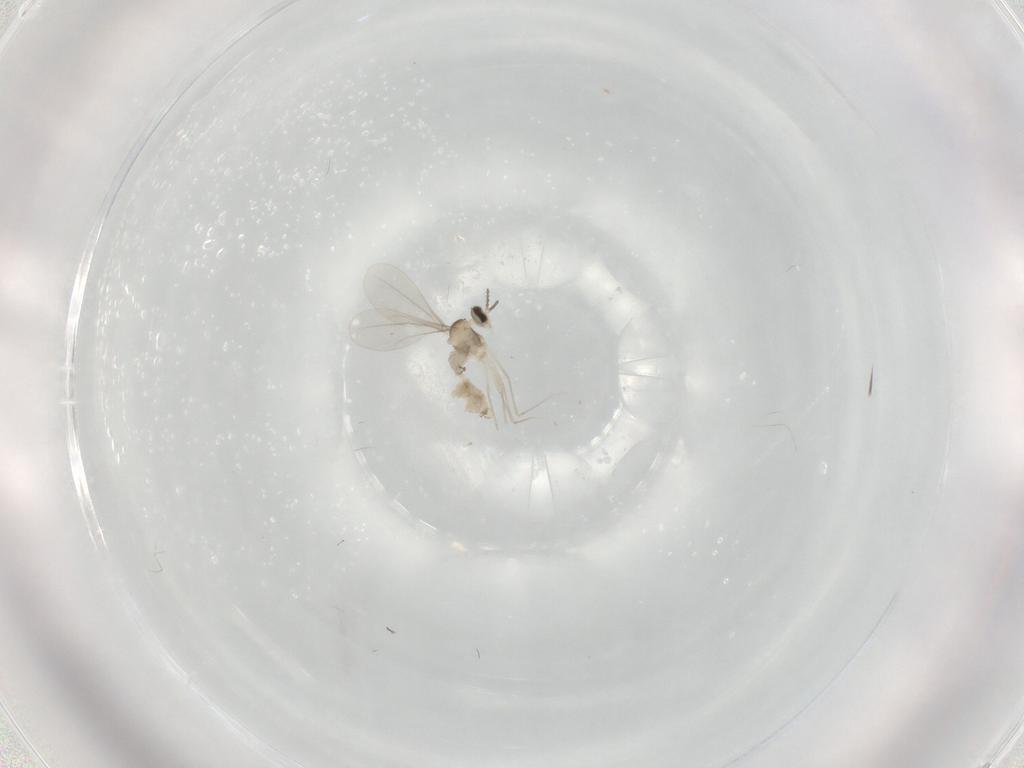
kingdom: Animalia
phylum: Arthropoda
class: Insecta
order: Diptera
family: Cecidomyiidae
